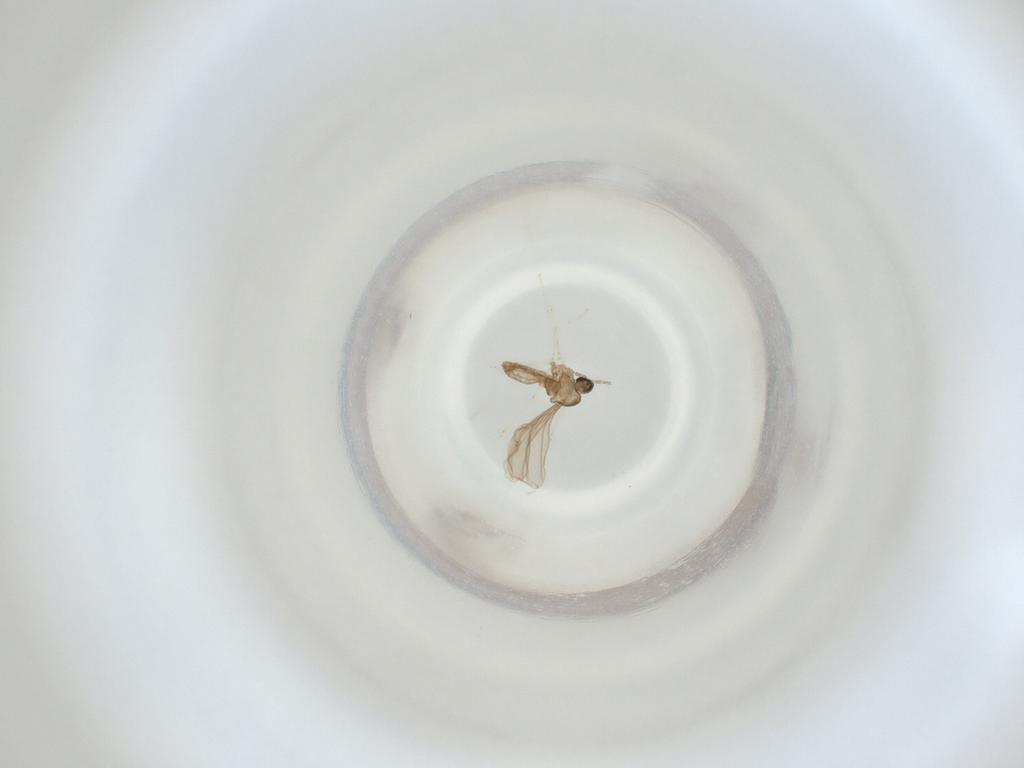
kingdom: Animalia
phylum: Arthropoda
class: Insecta
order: Diptera
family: Cecidomyiidae
